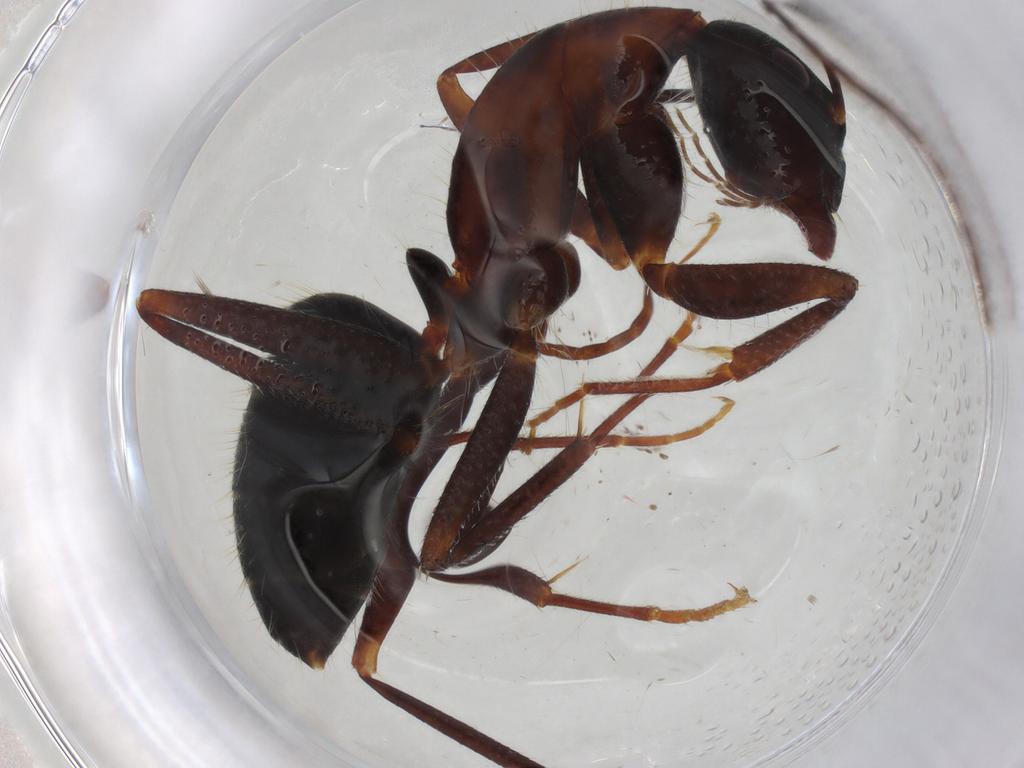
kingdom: Animalia
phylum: Arthropoda
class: Insecta
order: Hymenoptera
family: Formicidae
